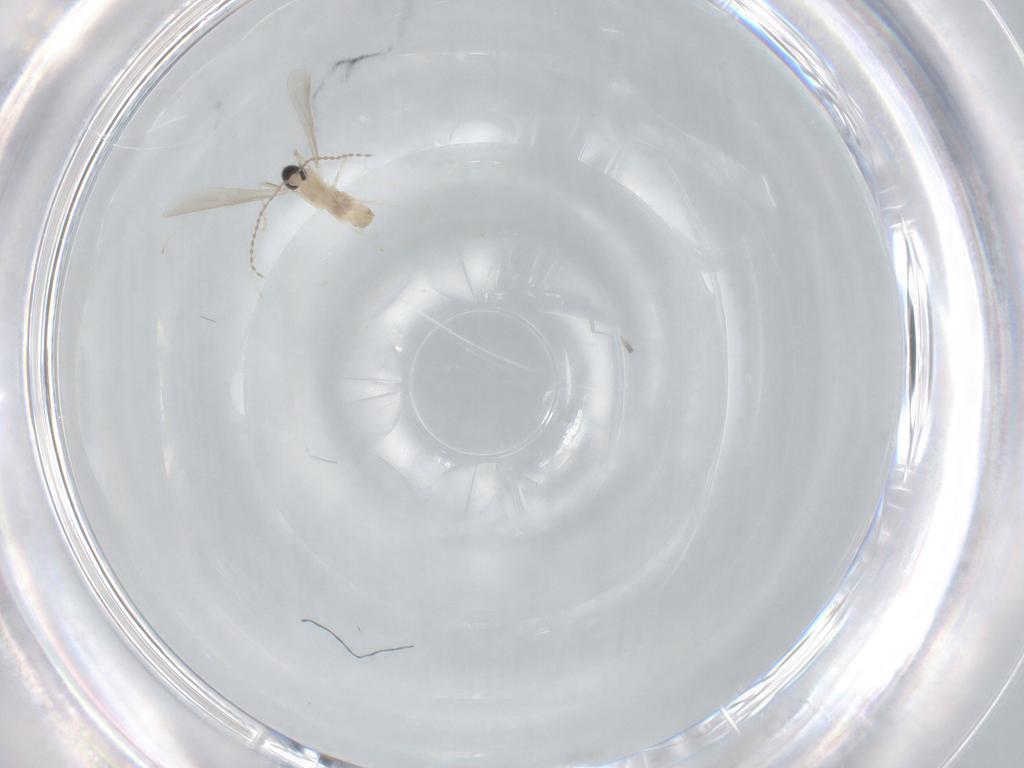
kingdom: Animalia
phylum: Arthropoda
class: Insecta
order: Diptera
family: Cecidomyiidae
